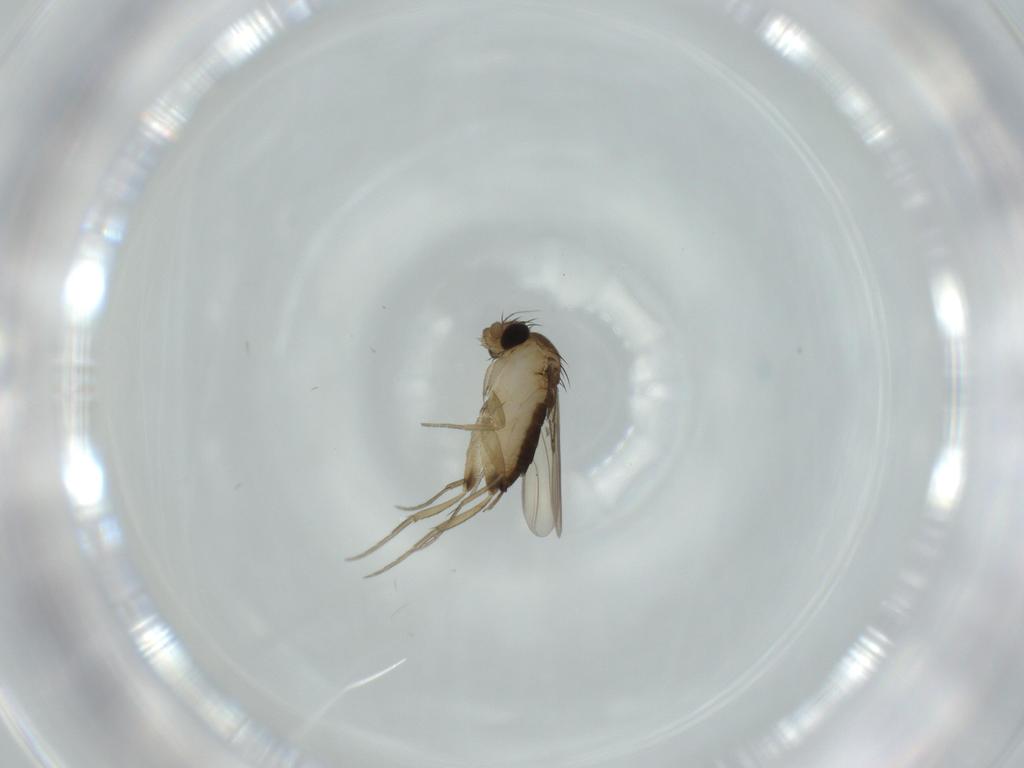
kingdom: Animalia
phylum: Arthropoda
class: Insecta
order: Diptera
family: Phoridae
